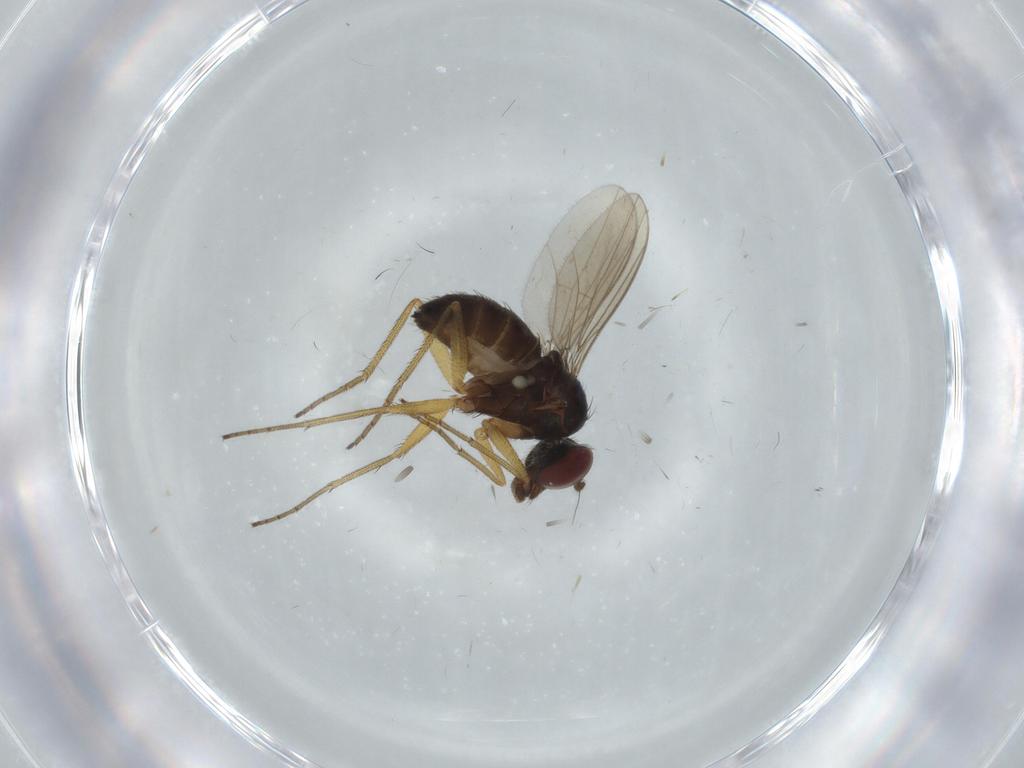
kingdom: Animalia
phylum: Arthropoda
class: Insecta
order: Diptera
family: Dolichopodidae
